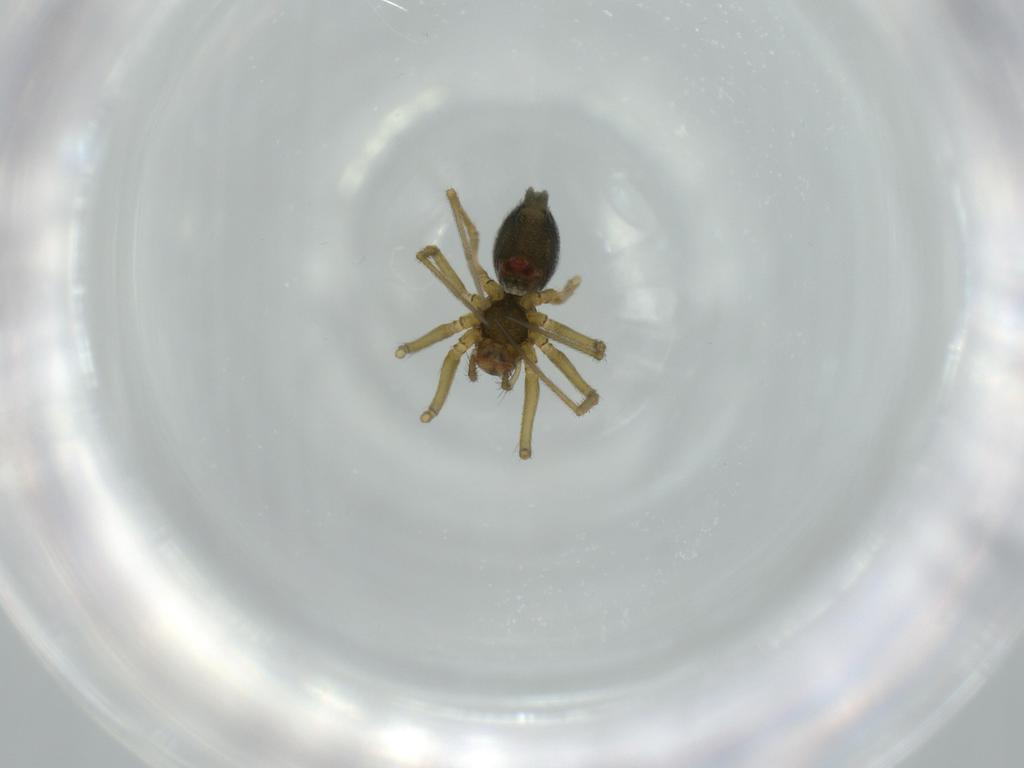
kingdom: Animalia
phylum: Arthropoda
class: Arachnida
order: Araneae
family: Linyphiidae
